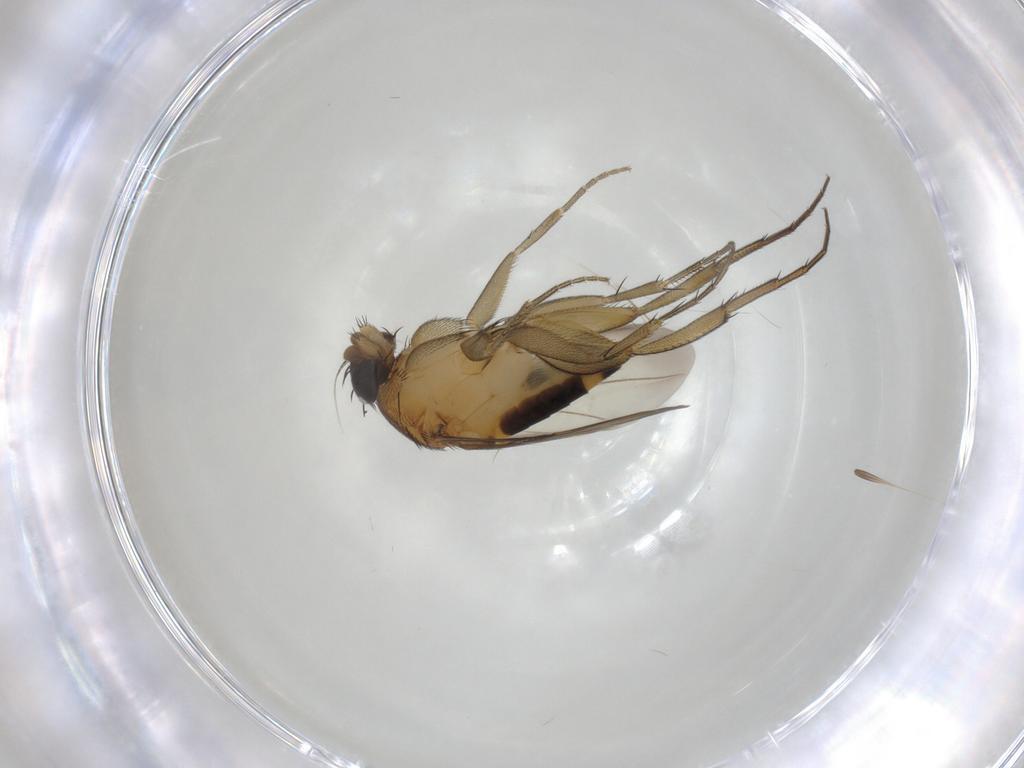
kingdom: Animalia
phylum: Arthropoda
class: Insecta
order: Diptera
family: Phoridae
